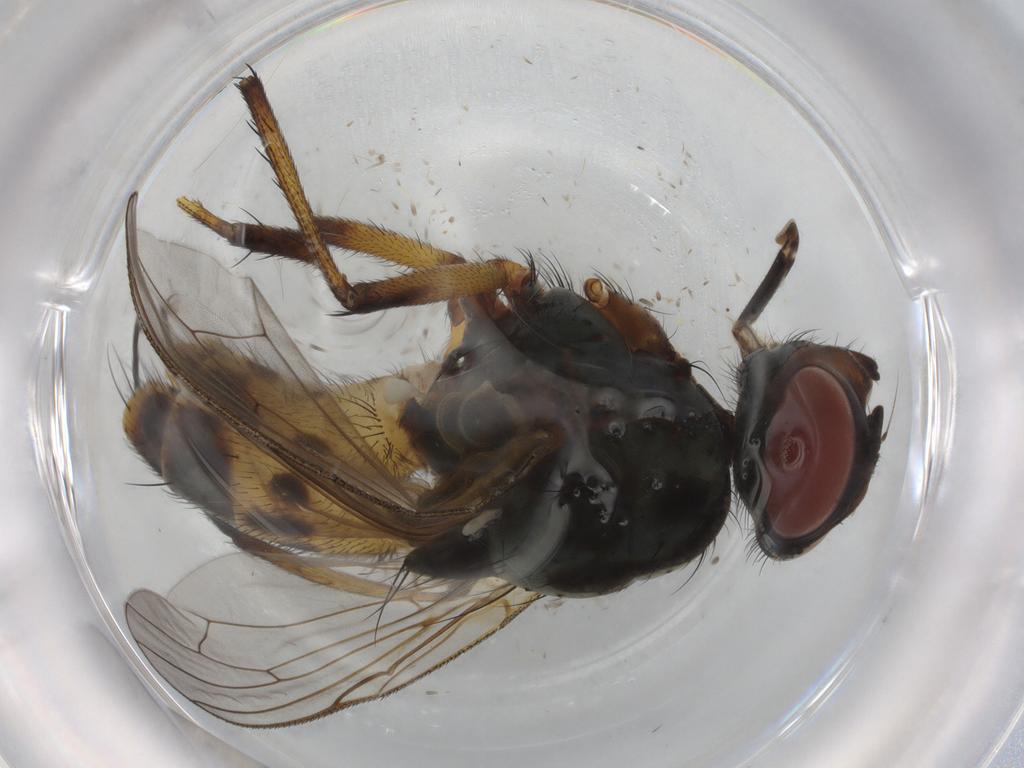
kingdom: Animalia
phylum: Arthropoda
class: Insecta
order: Diptera
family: Anthomyiidae
